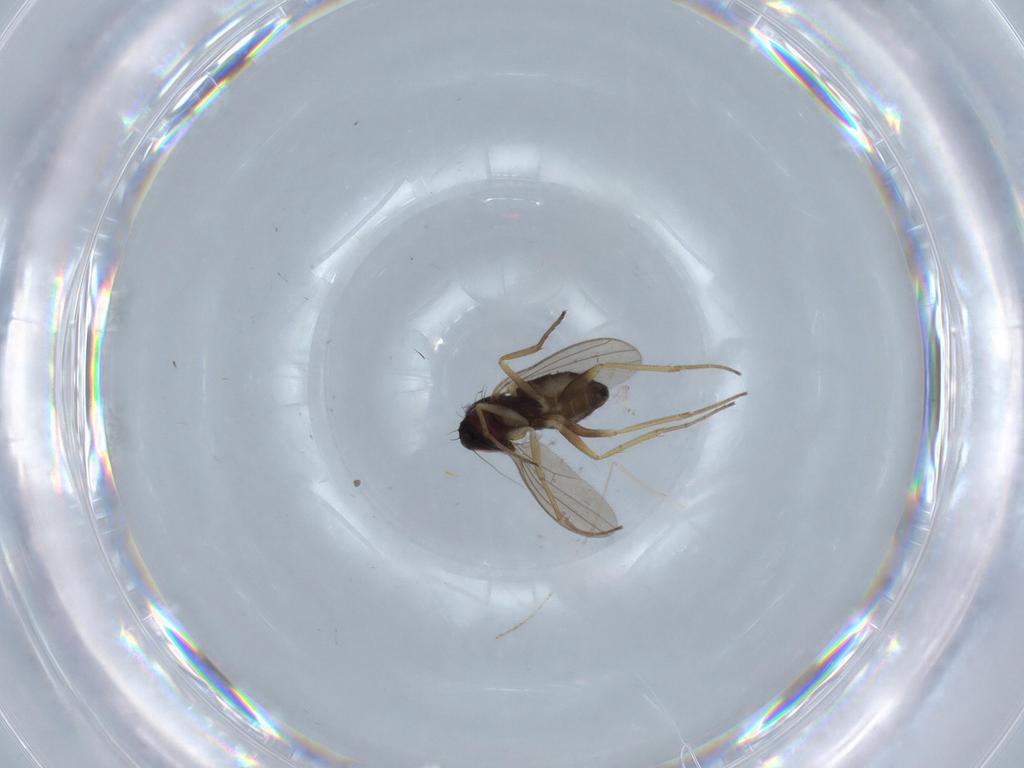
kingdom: Animalia
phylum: Arthropoda
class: Insecta
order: Diptera
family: Dolichopodidae
